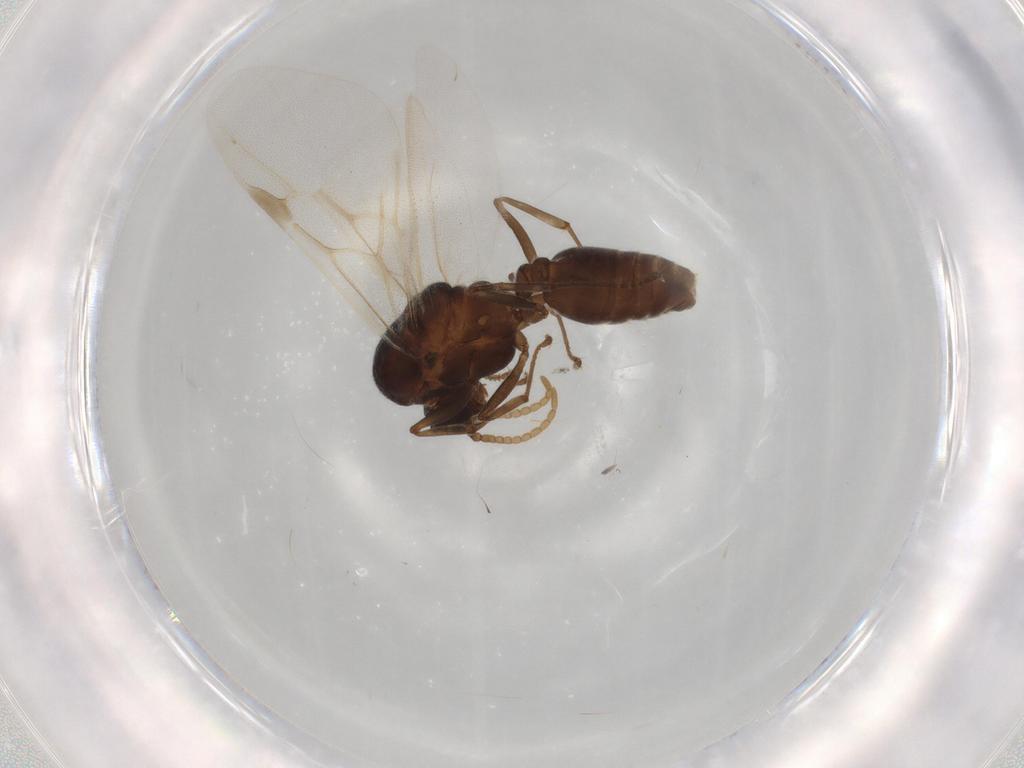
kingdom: Animalia
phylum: Arthropoda
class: Insecta
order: Hymenoptera
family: Formicidae
